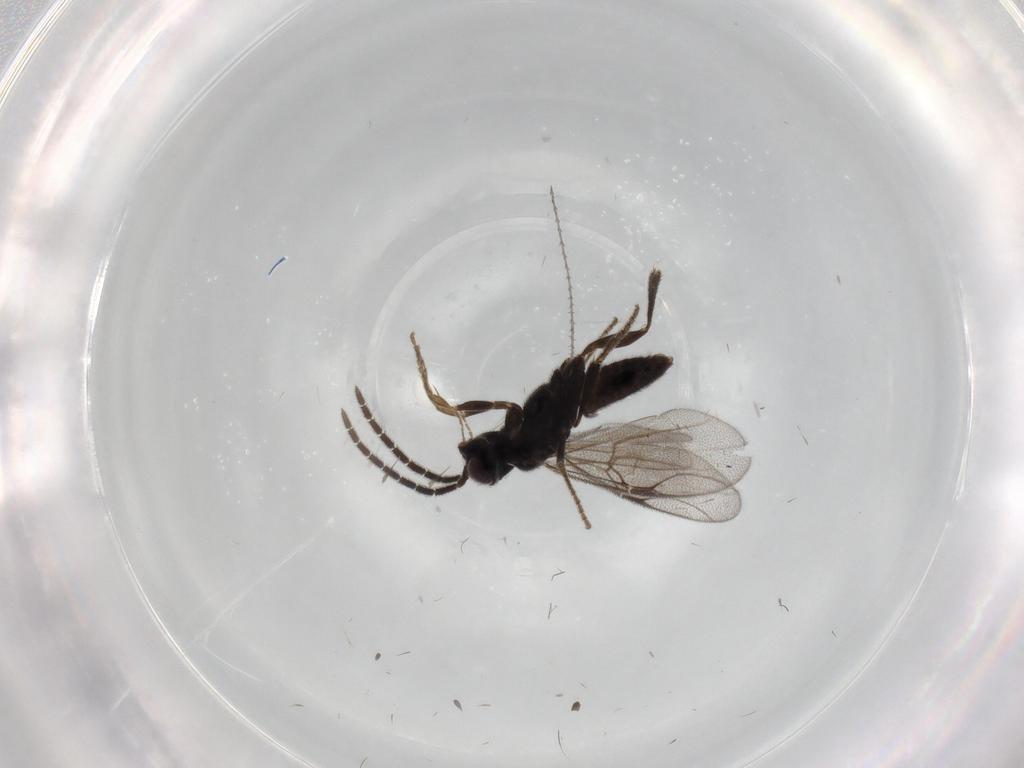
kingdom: Animalia
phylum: Arthropoda
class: Insecta
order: Hymenoptera
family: Dryinidae
